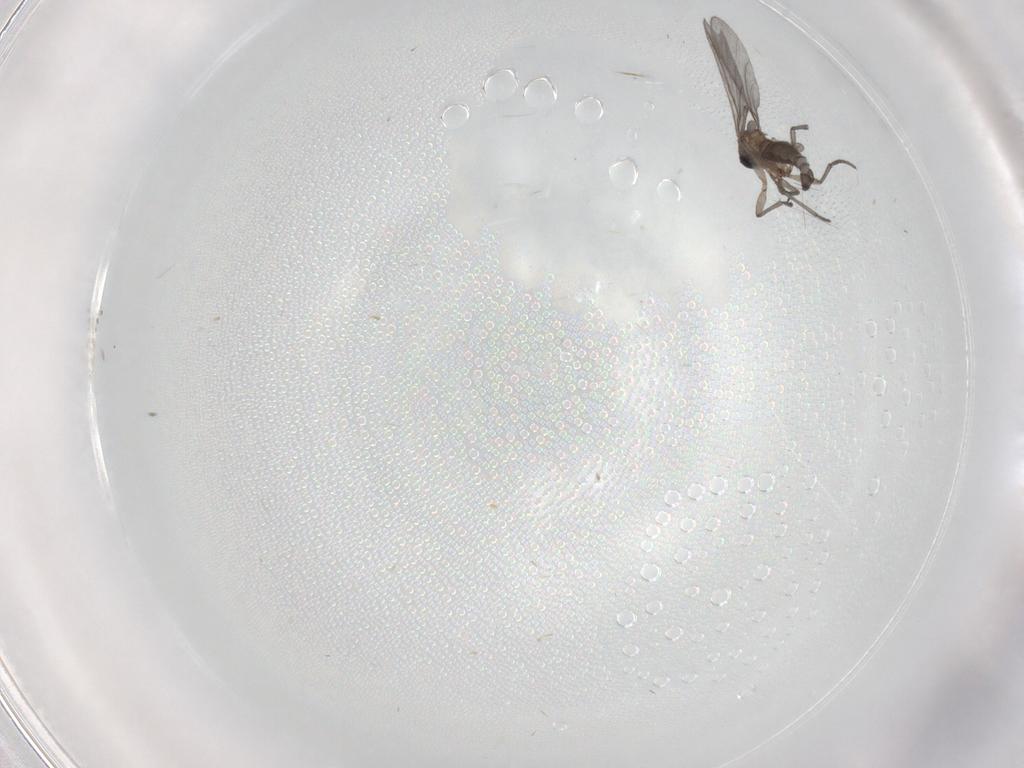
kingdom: Animalia
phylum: Arthropoda
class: Insecta
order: Diptera
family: Sciaridae
